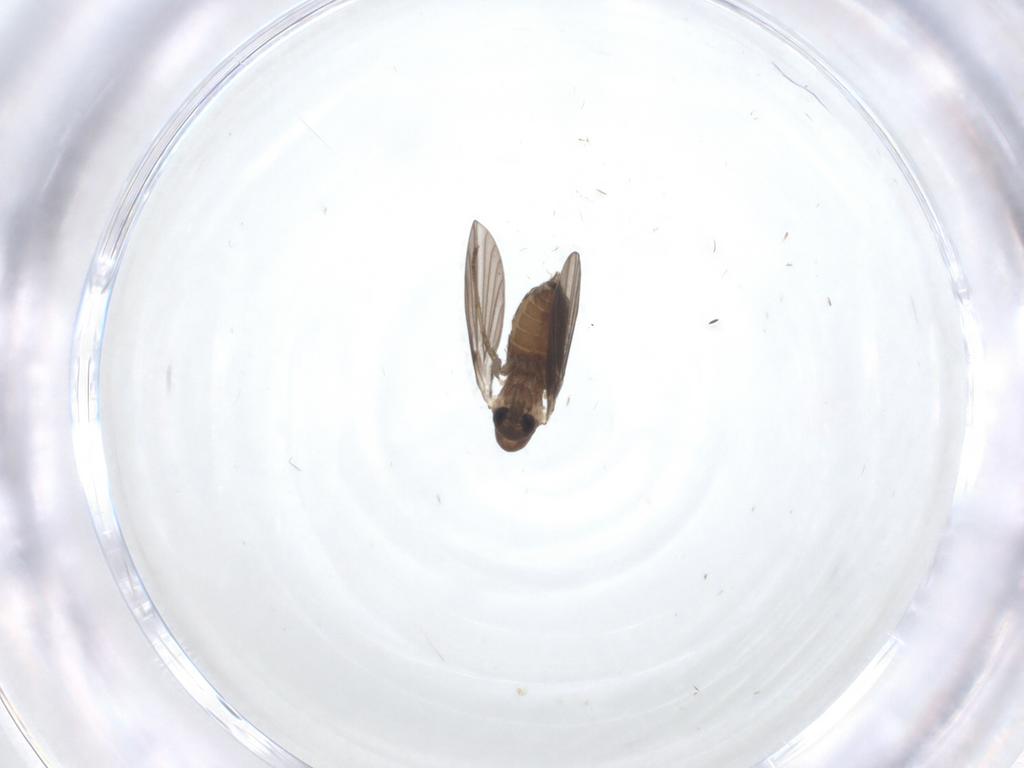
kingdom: Animalia
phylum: Arthropoda
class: Insecta
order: Diptera
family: Psychodidae
